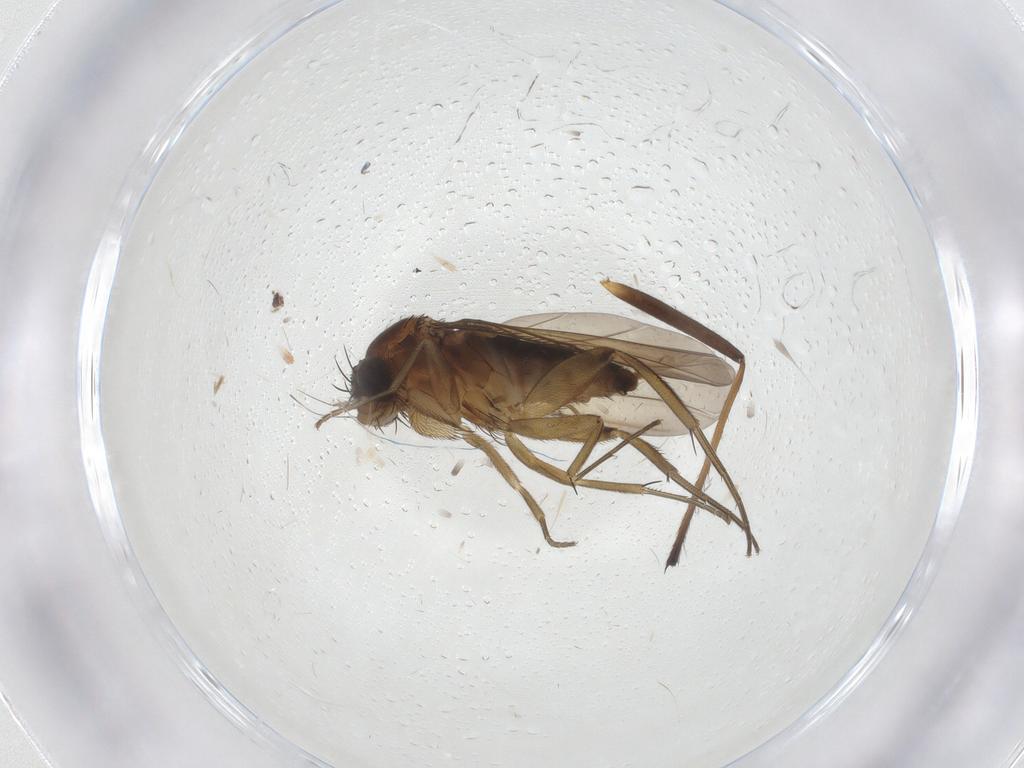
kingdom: Animalia
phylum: Arthropoda
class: Insecta
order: Diptera
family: Phoridae
